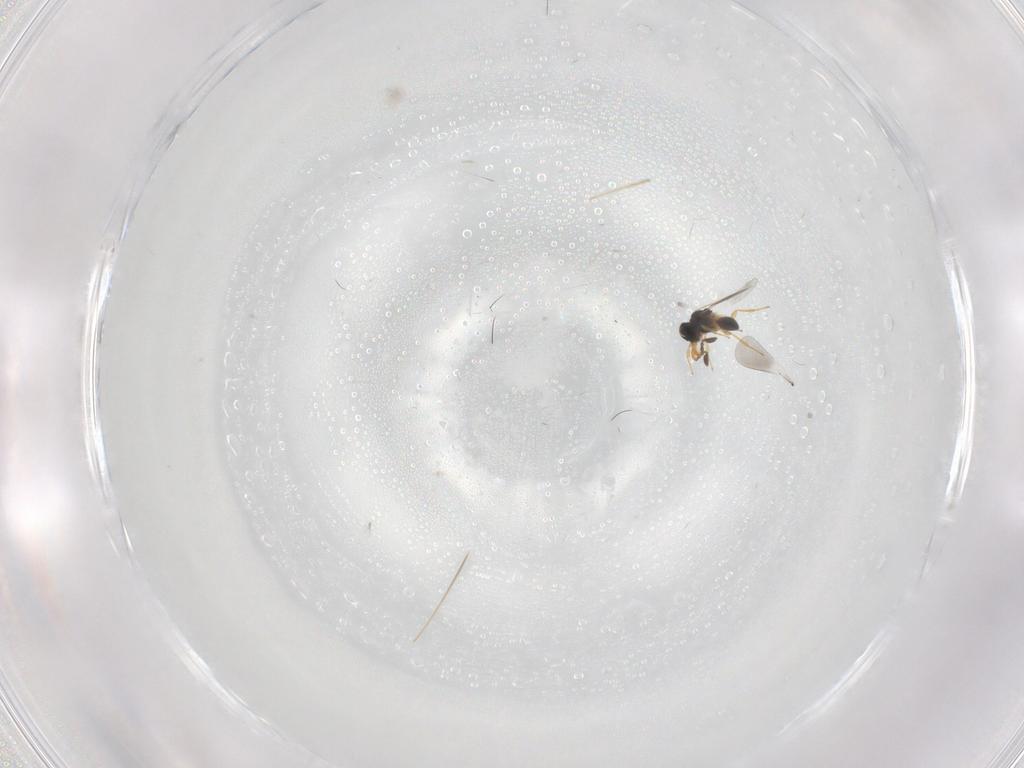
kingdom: Animalia
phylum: Arthropoda
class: Insecta
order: Hymenoptera
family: Platygastridae
